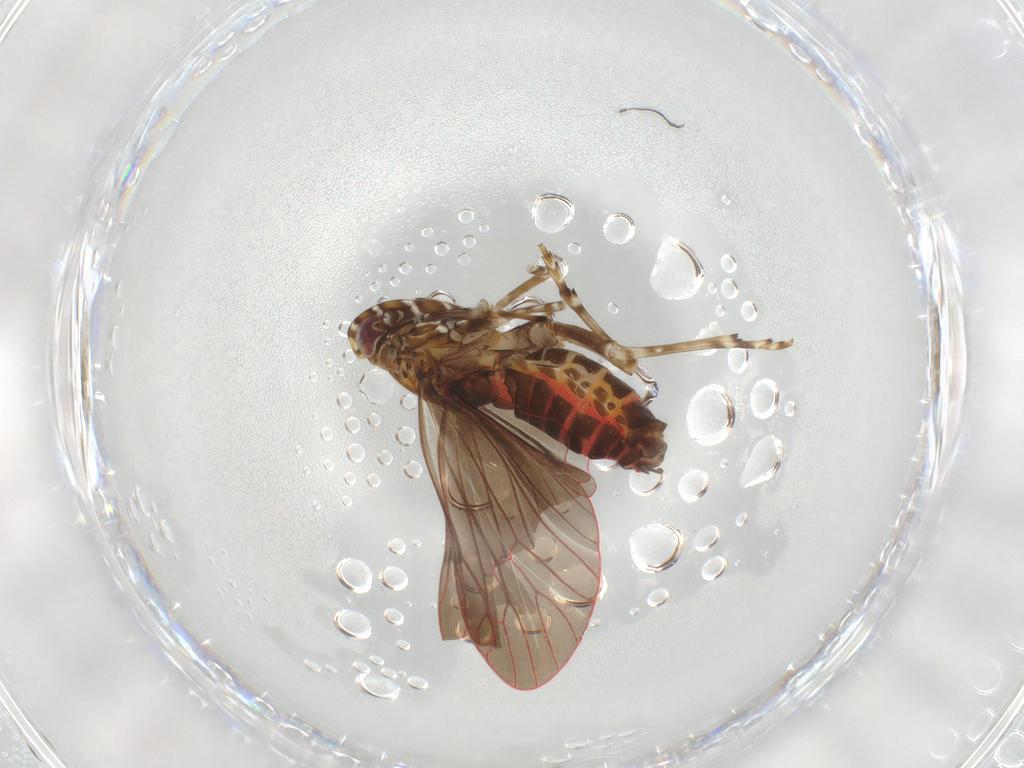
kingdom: Animalia
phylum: Arthropoda
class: Insecta
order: Hemiptera
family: Achilidae
